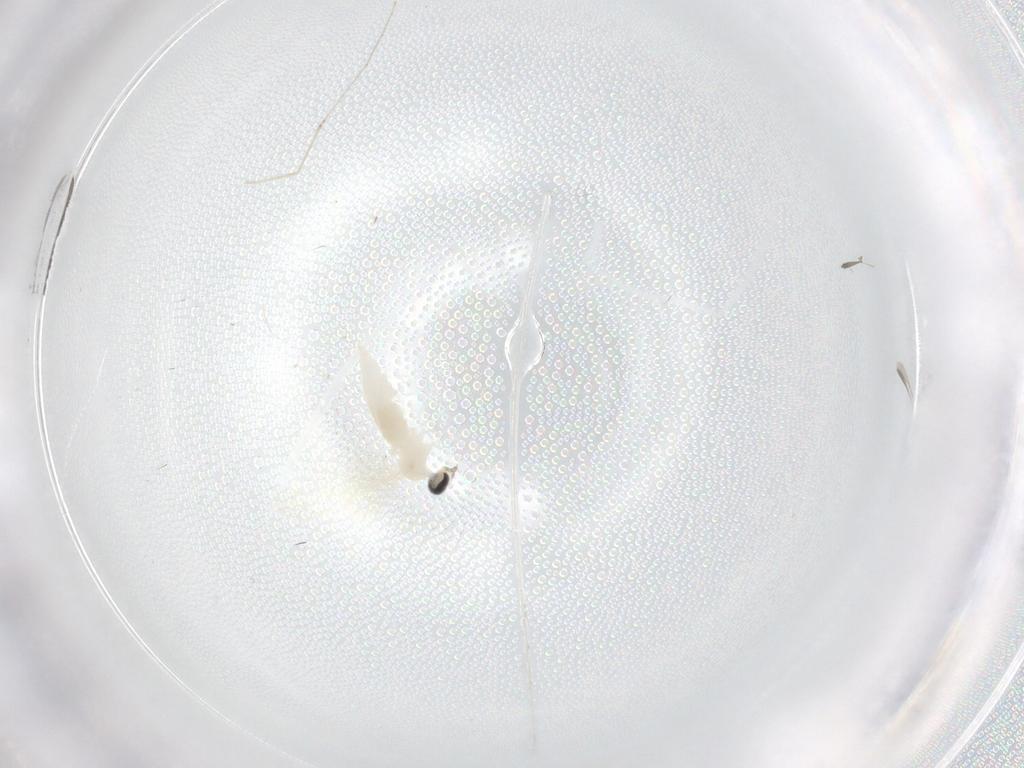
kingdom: Animalia
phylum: Arthropoda
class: Insecta
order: Diptera
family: Cecidomyiidae
